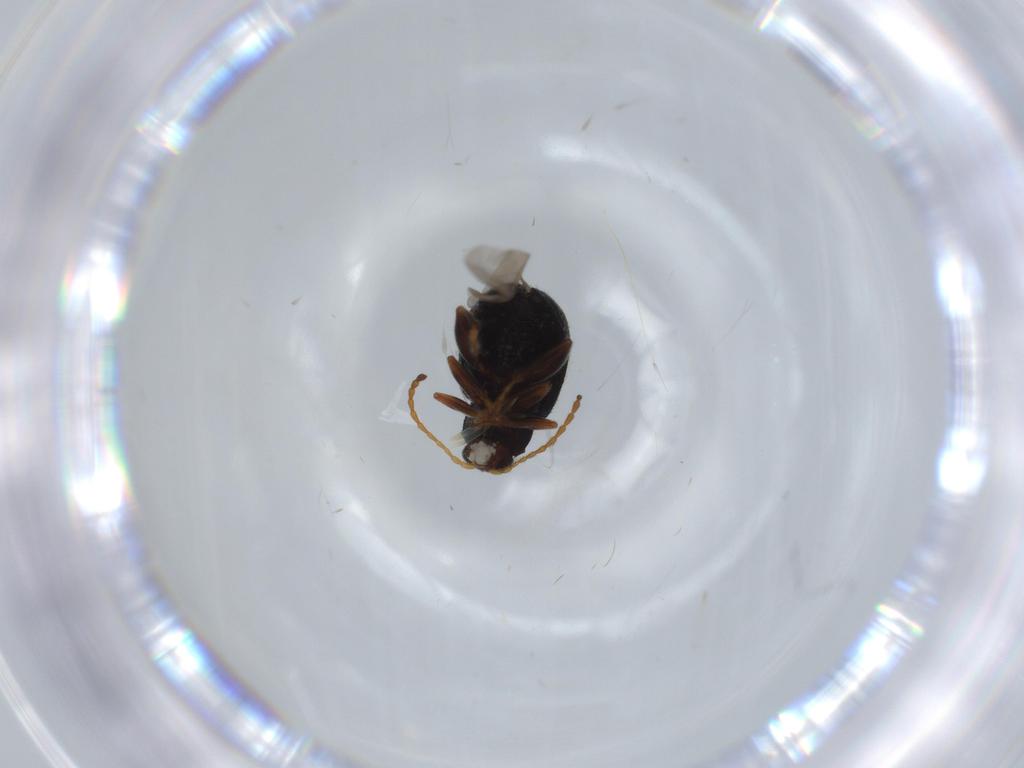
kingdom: Animalia
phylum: Arthropoda
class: Insecta
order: Coleoptera
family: Chrysomelidae
